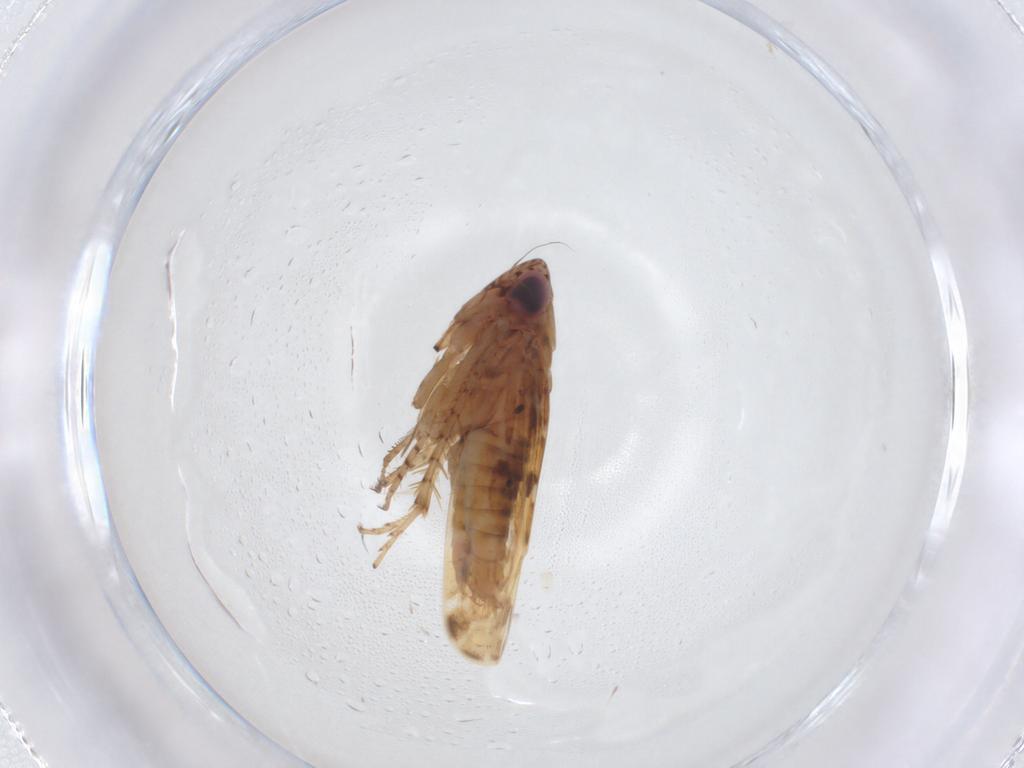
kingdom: Animalia
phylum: Arthropoda
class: Insecta
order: Hemiptera
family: Cicadellidae
